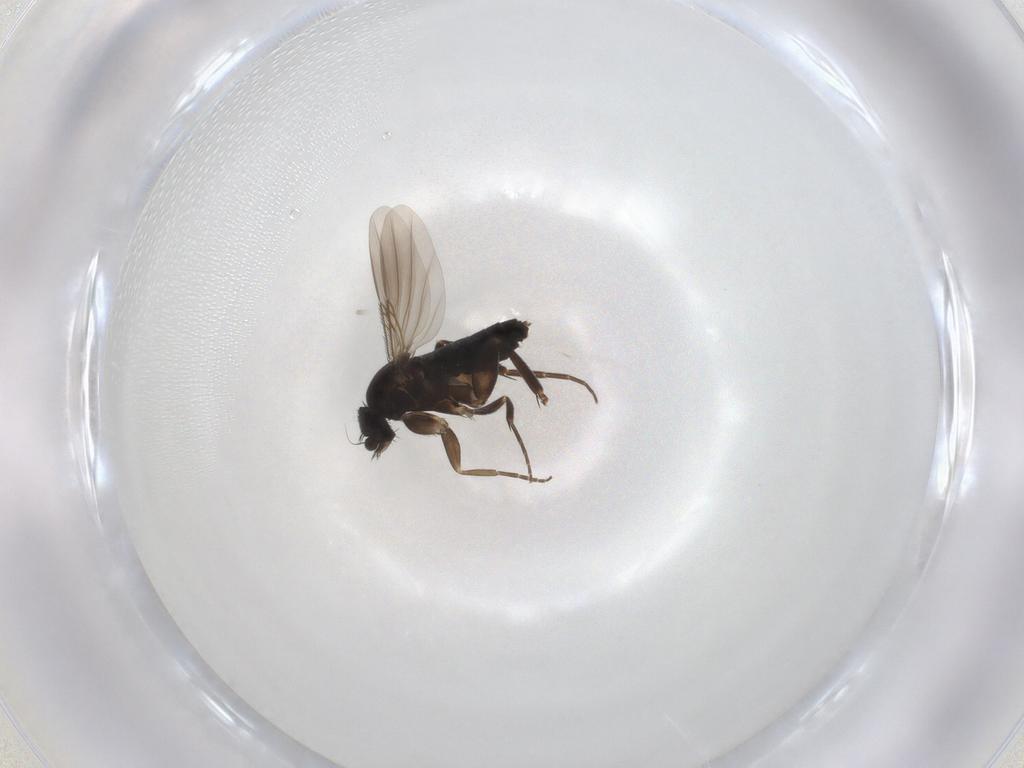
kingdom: Animalia
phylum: Arthropoda
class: Insecta
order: Diptera
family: Phoridae
